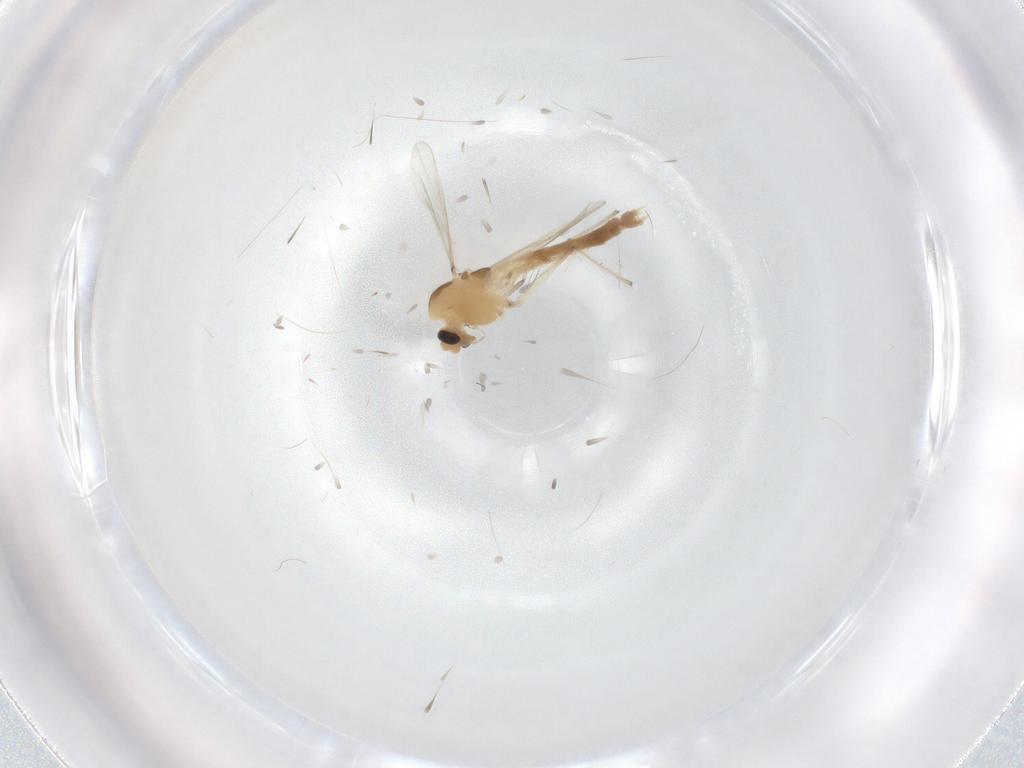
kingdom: Animalia
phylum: Arthropoda
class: Insecta
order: Diptera
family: Chironomidae
